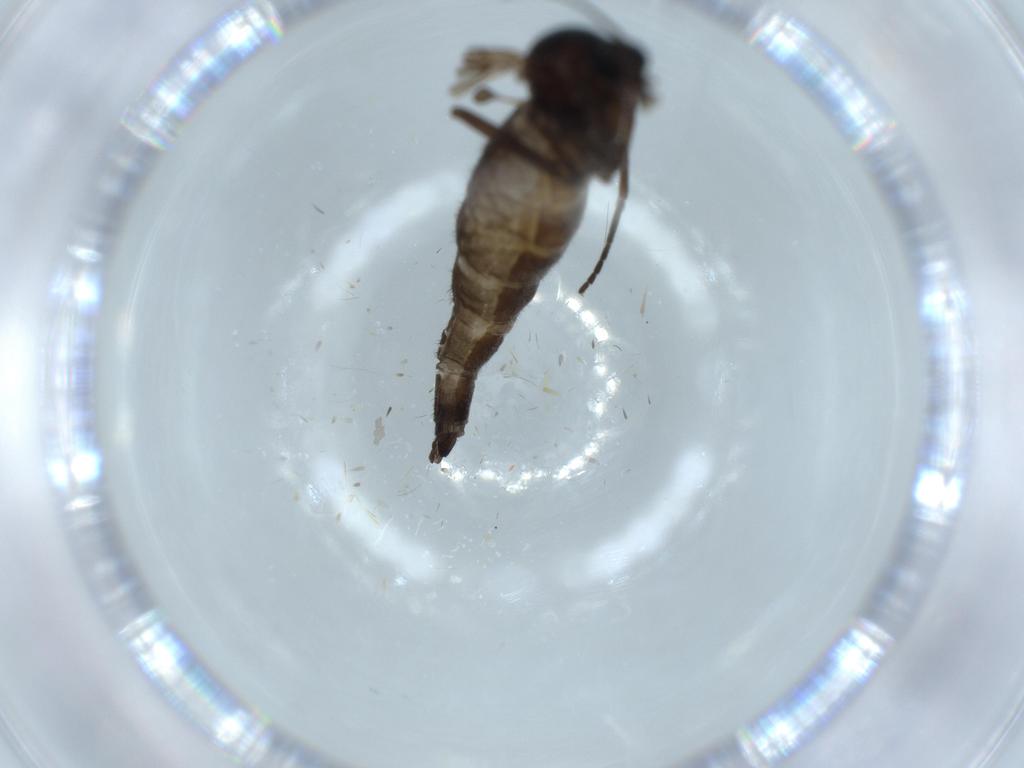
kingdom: Animalia
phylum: Arthropoda
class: Insecta
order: Diptera
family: Sciaridae
